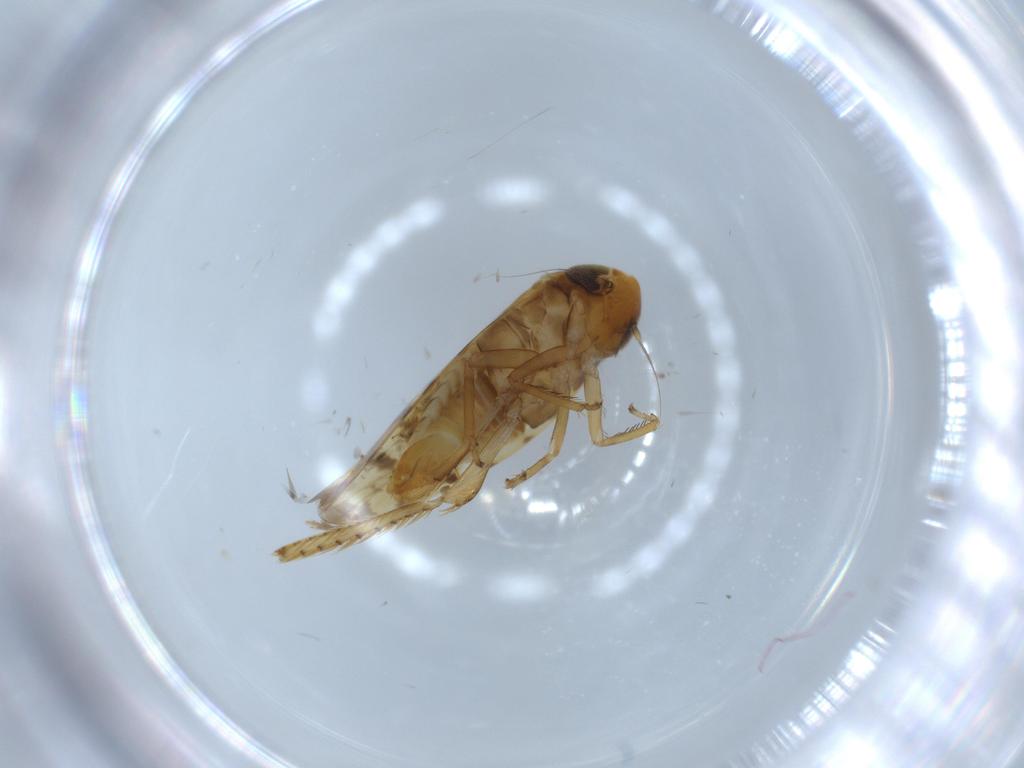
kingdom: Animalia
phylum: Arthropoda
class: Insecta
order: Hemiptera
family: Cicadellidae
